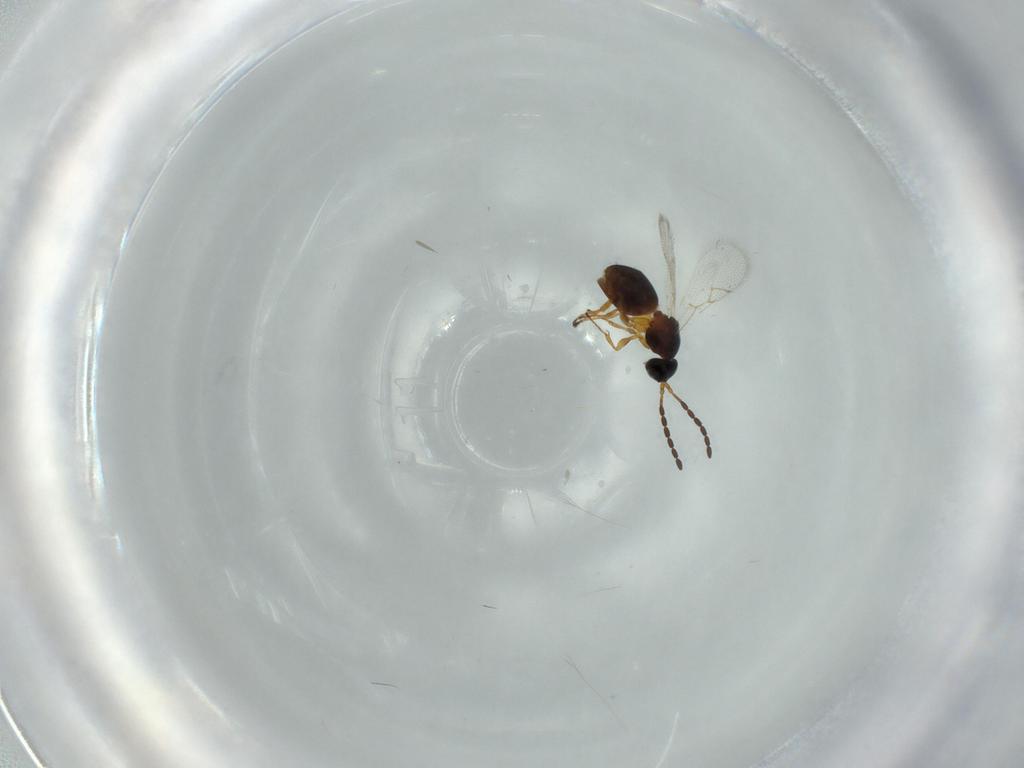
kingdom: Animalia
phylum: Arthropoda
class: Insecta
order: Hymenoptera
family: Figitidae
